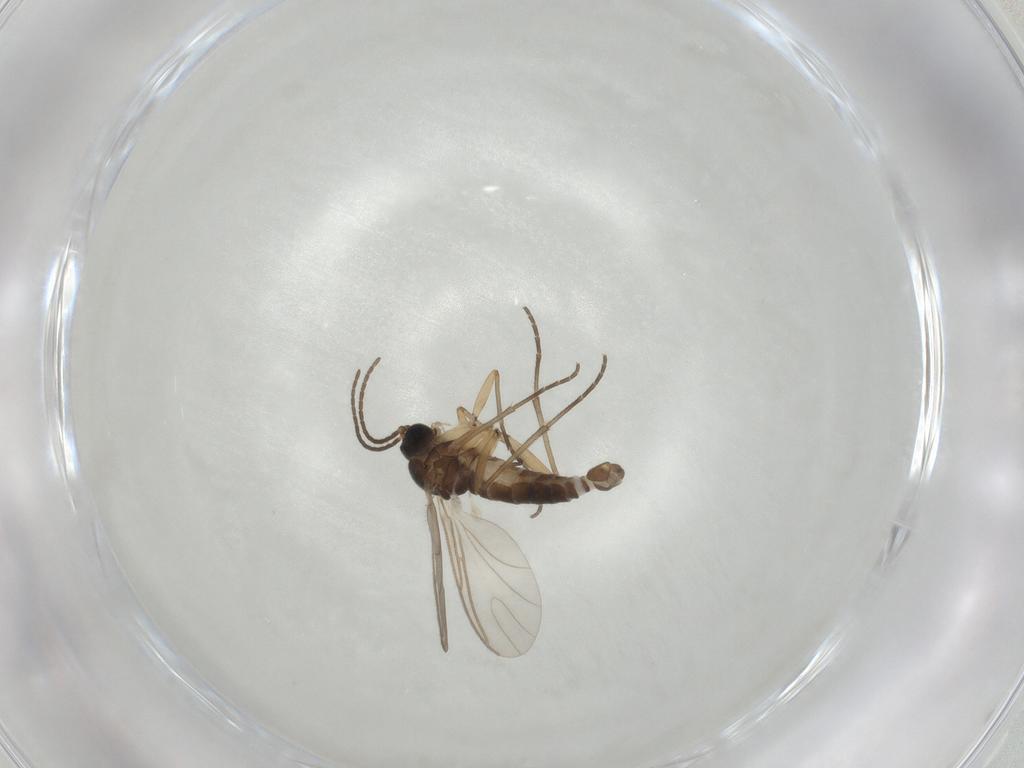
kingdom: Animalia
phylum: Arthropoda
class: Insecta
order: Diptera
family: Sciaridae
